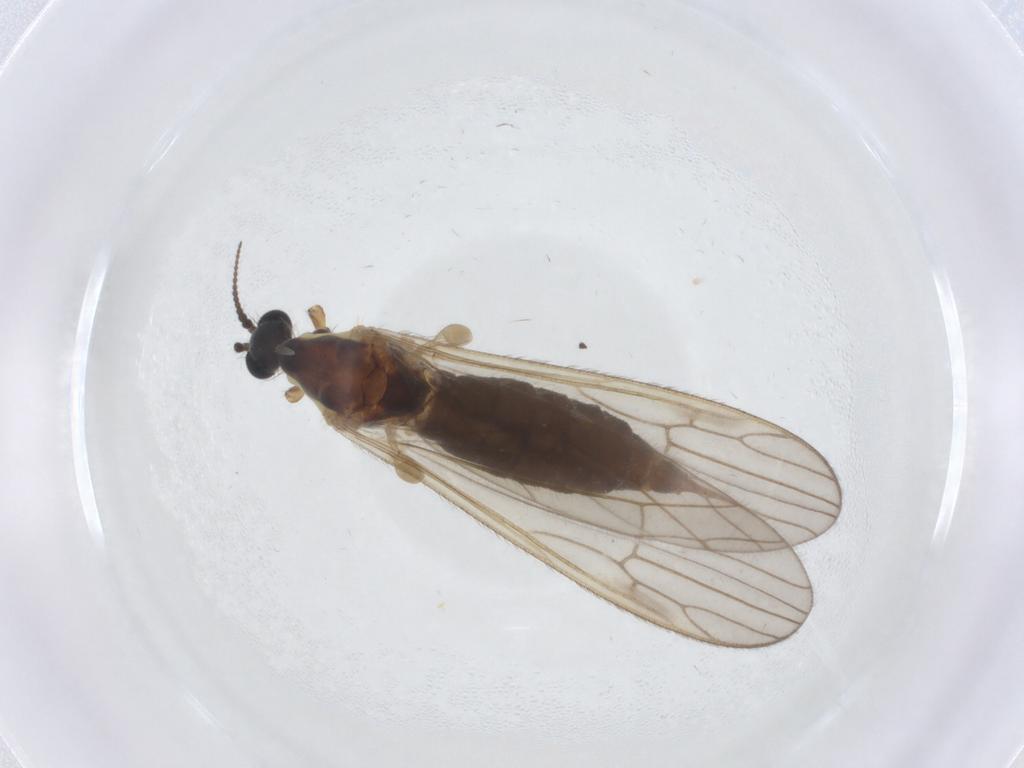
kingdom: Animalia
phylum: Arthropoda
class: Insecta
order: Diptera
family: Agromyzidae
